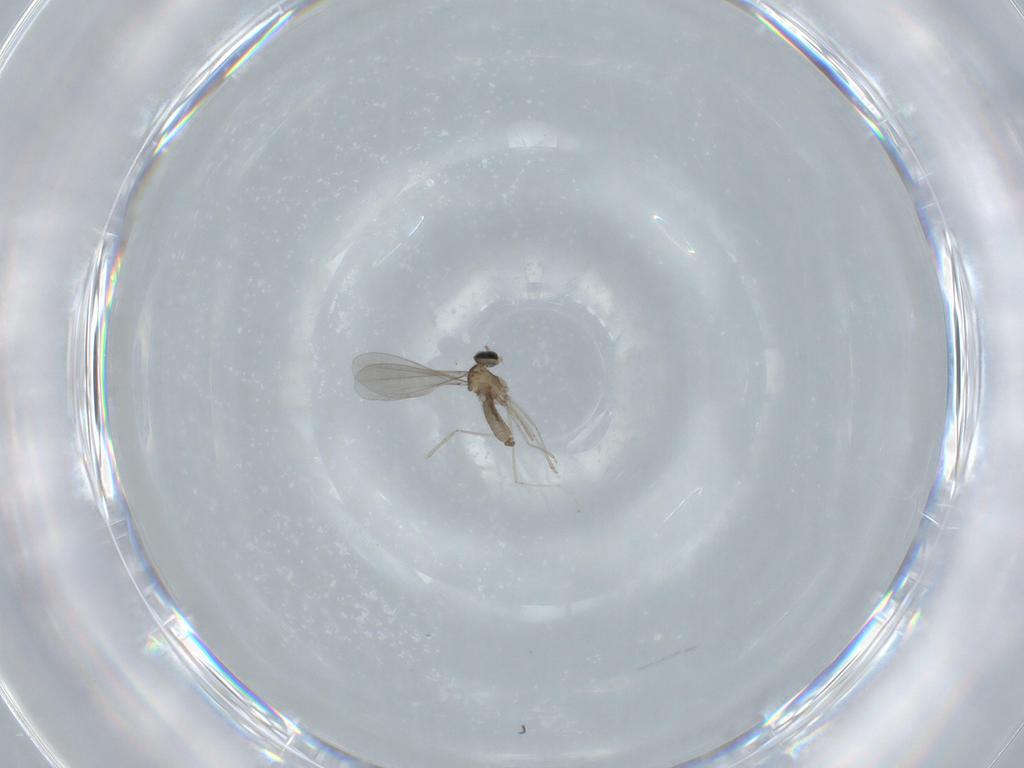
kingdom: Animalia
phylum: Arthropoda
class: Insecta
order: Diptera
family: Cecidomyiidae
